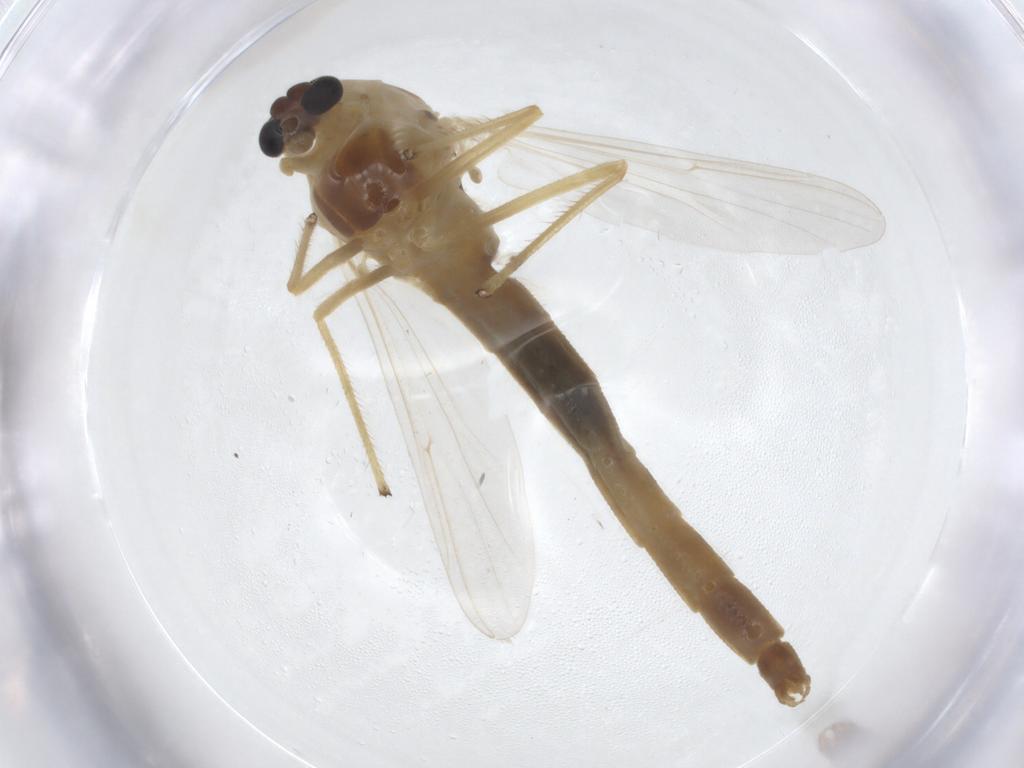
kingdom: Animalia
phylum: Arthropoda
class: Insecta
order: Diptera
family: Chironomidae
